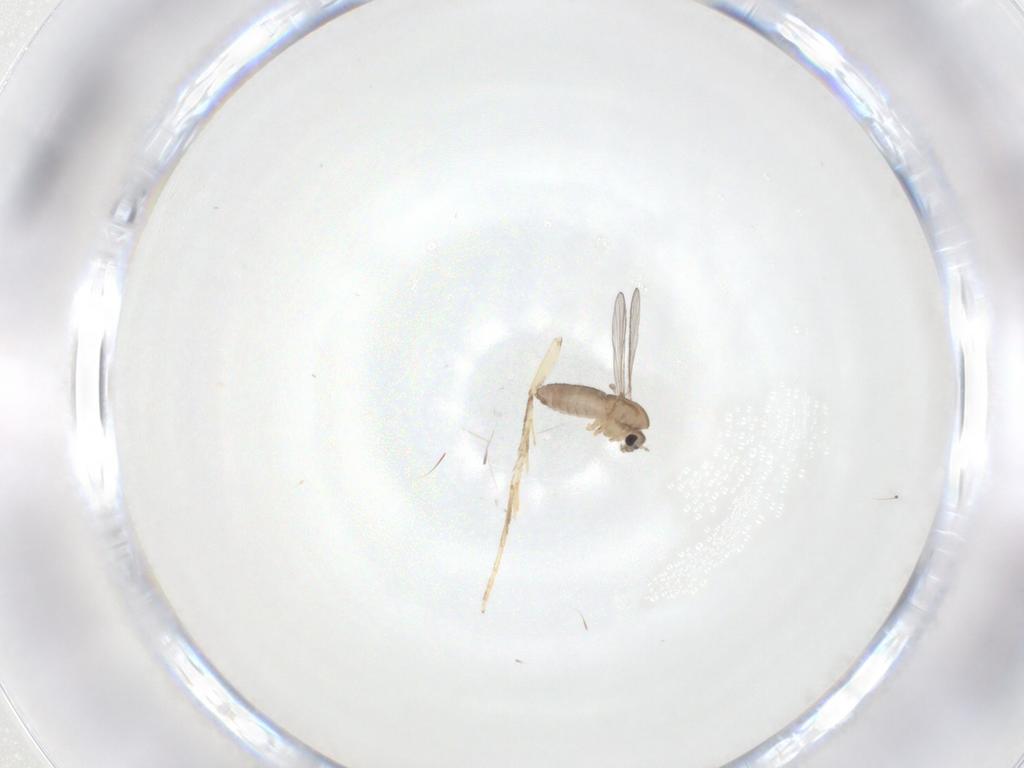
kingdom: Animalia
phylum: Arthropoda
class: Insecta
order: Diptera
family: Chironomidae
